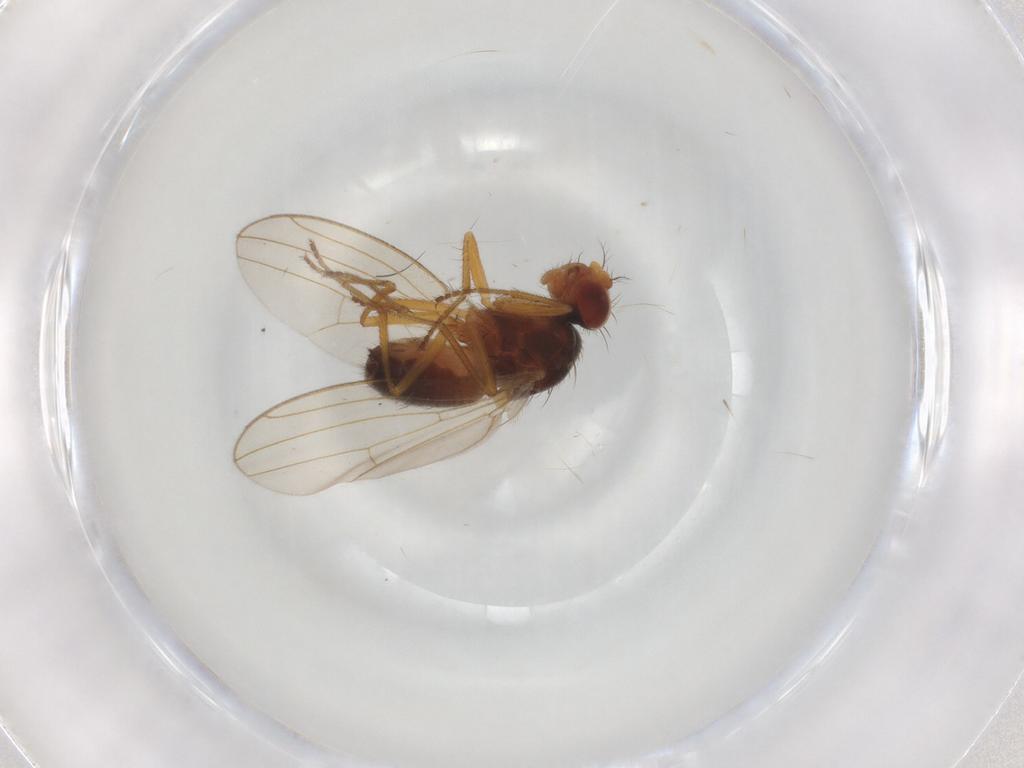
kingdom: Animalia
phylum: Arthropoda
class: Insecta
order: Diptera
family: Drosophilidae
